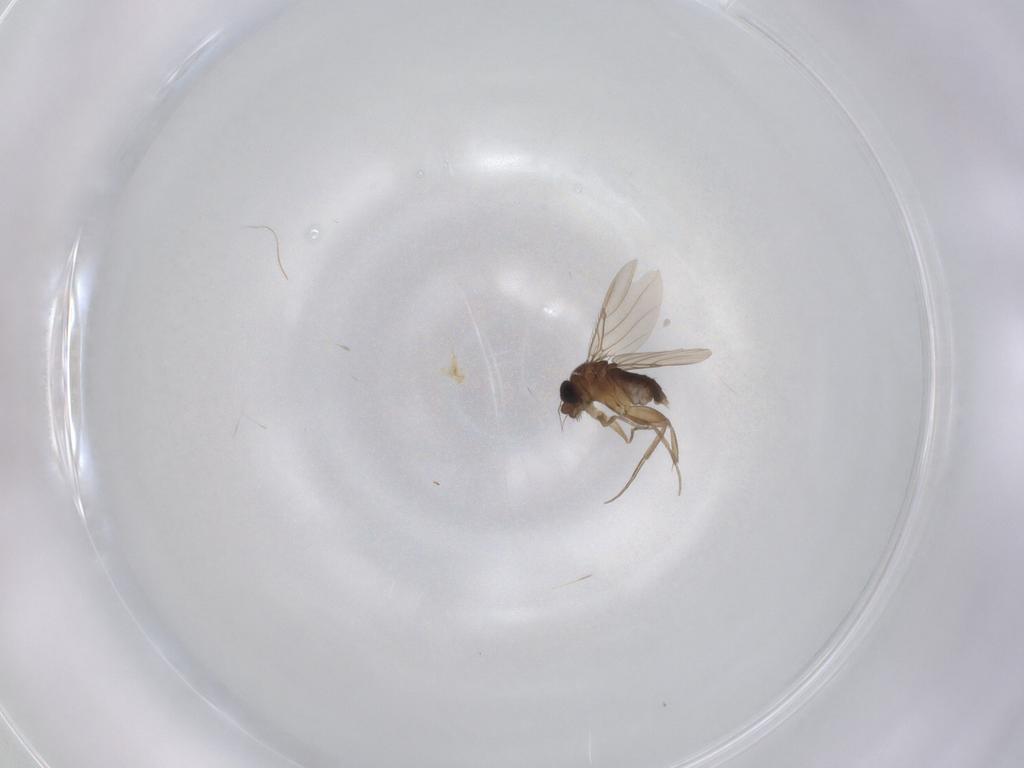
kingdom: Animalia
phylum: Arthropoda
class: Insecta
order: Diptera
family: Phoridae
